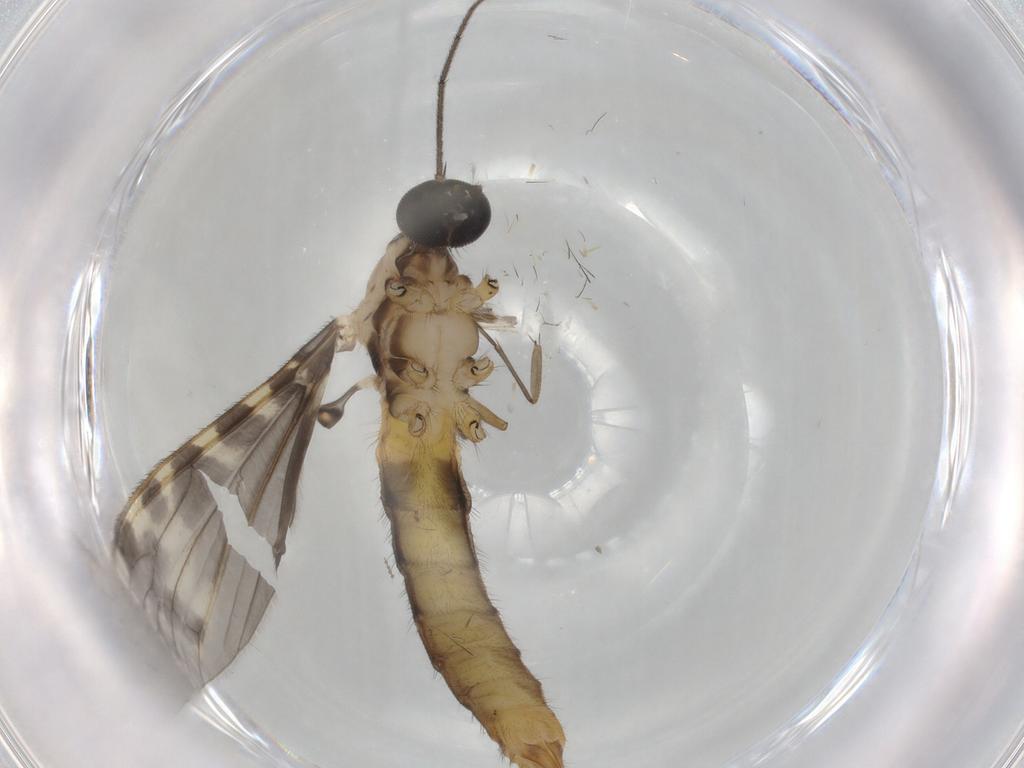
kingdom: Animalia
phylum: Arthropoda
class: Insecta
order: Diptera
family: Limoniidae
